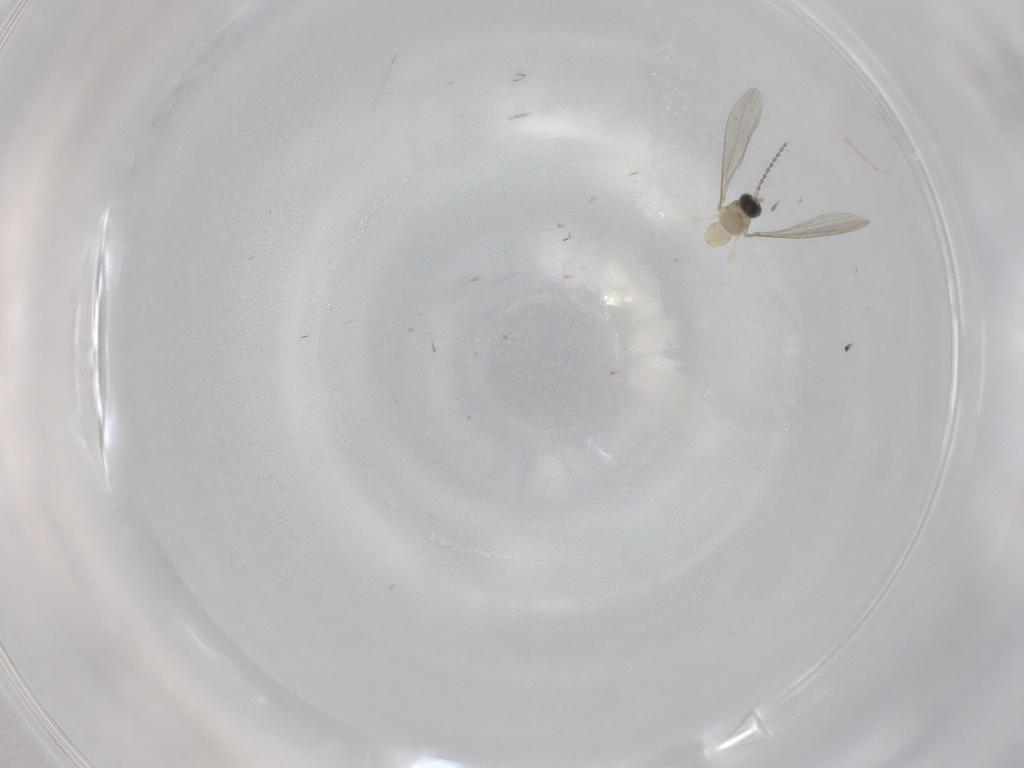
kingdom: Animalia
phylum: Arthropoda
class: Insecta
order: Diptera
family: Cecidomyiidae
